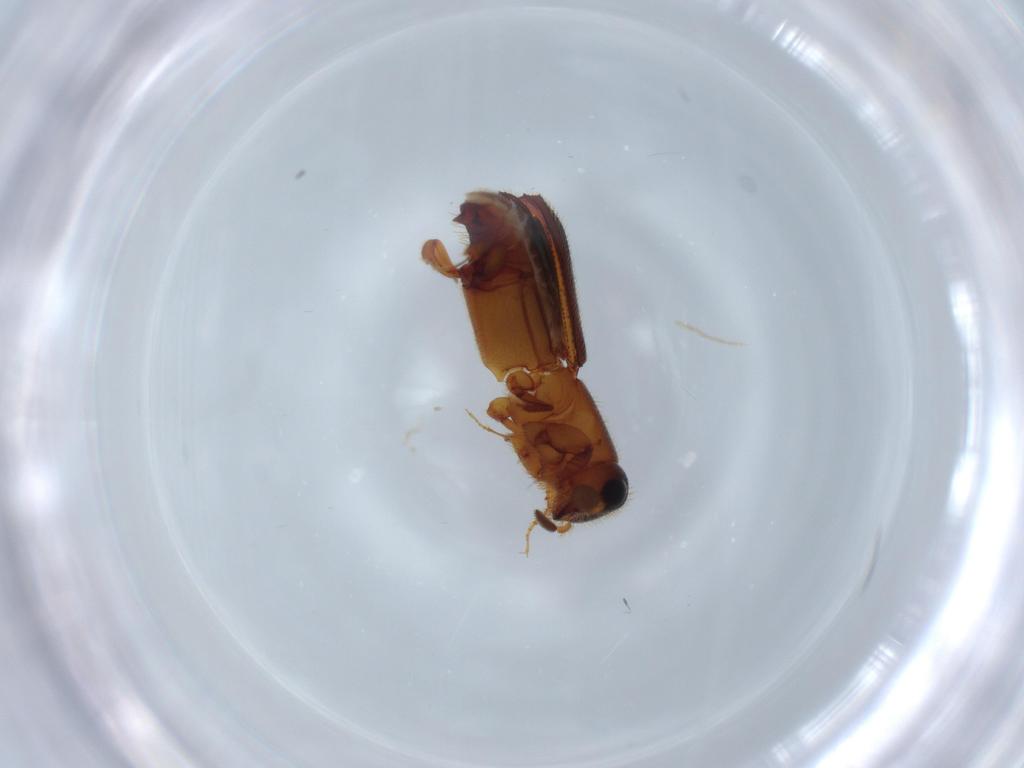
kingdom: Animalia
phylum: Arthropoda
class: Insecta
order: Coleoptera
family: Curculionidae
